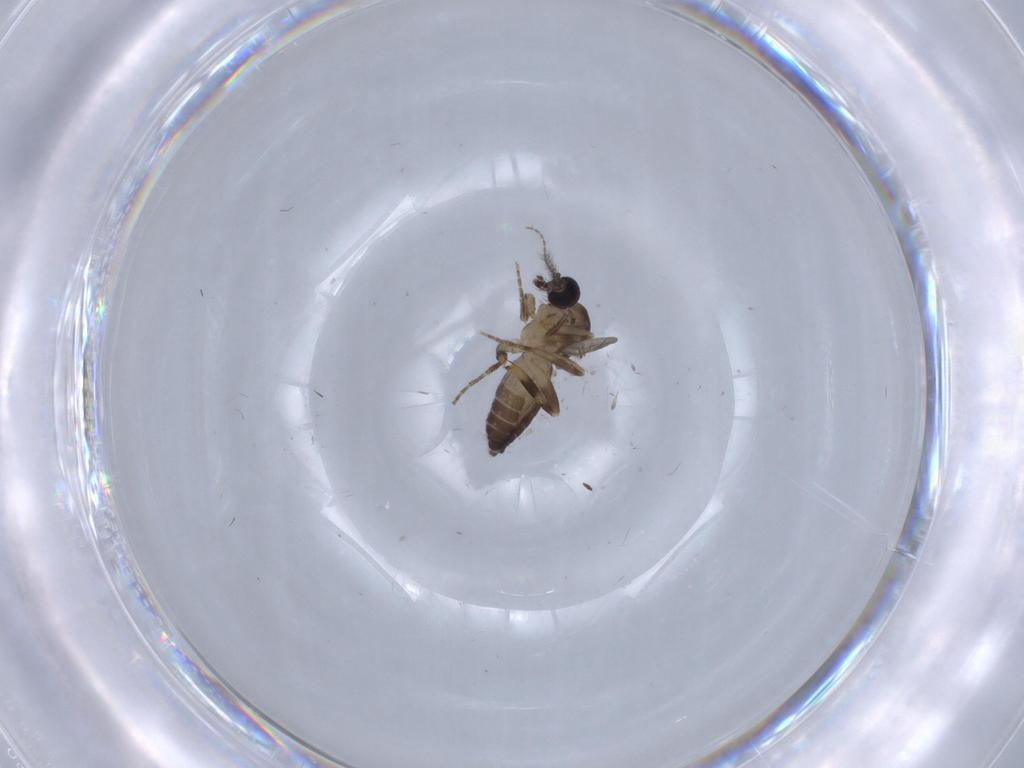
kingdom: Animalia
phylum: Arthropoda
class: Insecta
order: Diptera
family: Ceratopogonidae
